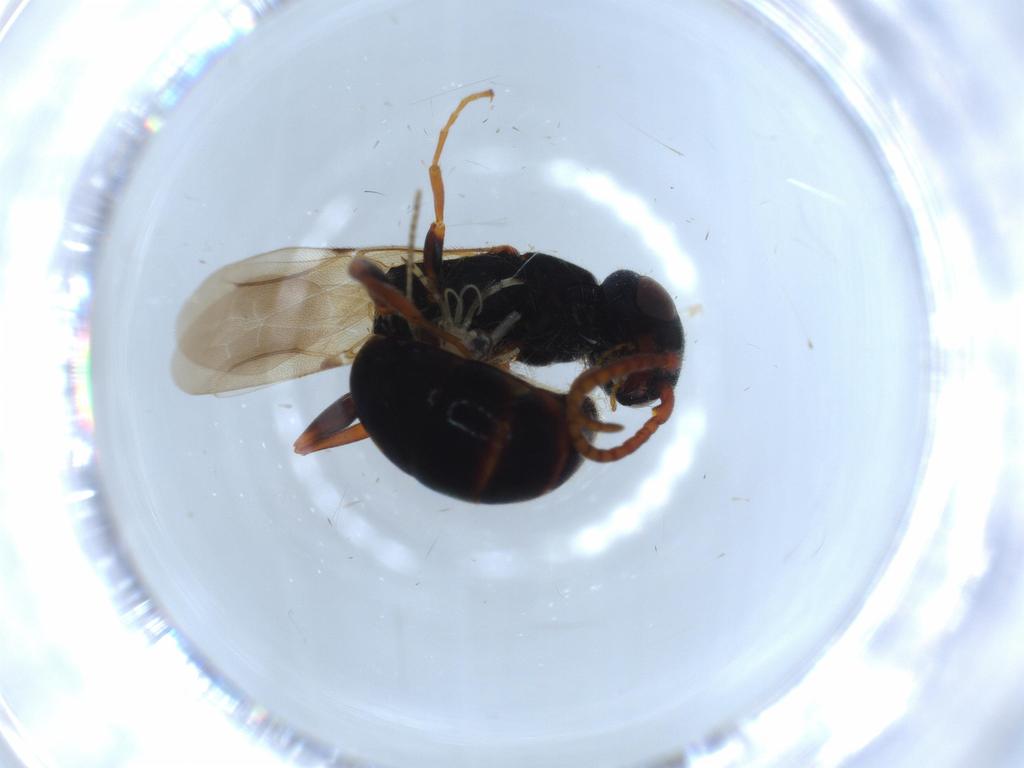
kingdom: Animalia
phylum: Arthropoda
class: Insecta
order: Hymenoptera
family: Bethylidae
